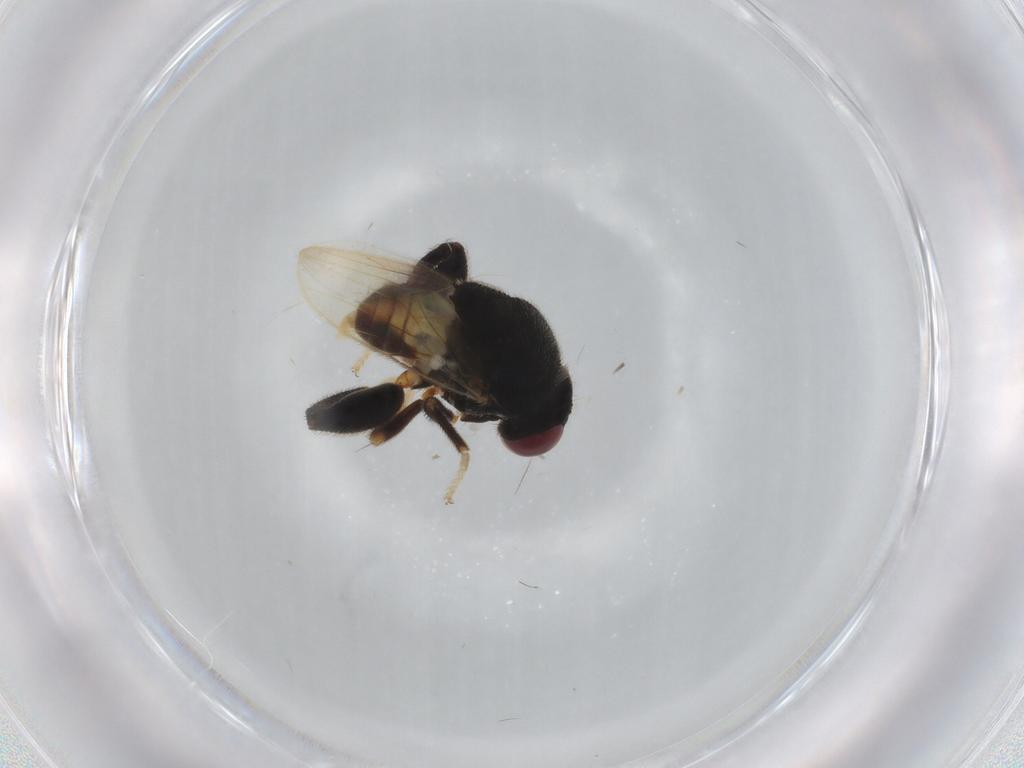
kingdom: Animalia
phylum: Arthropoda
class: Insecta
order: Diptera
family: Chloropidae
